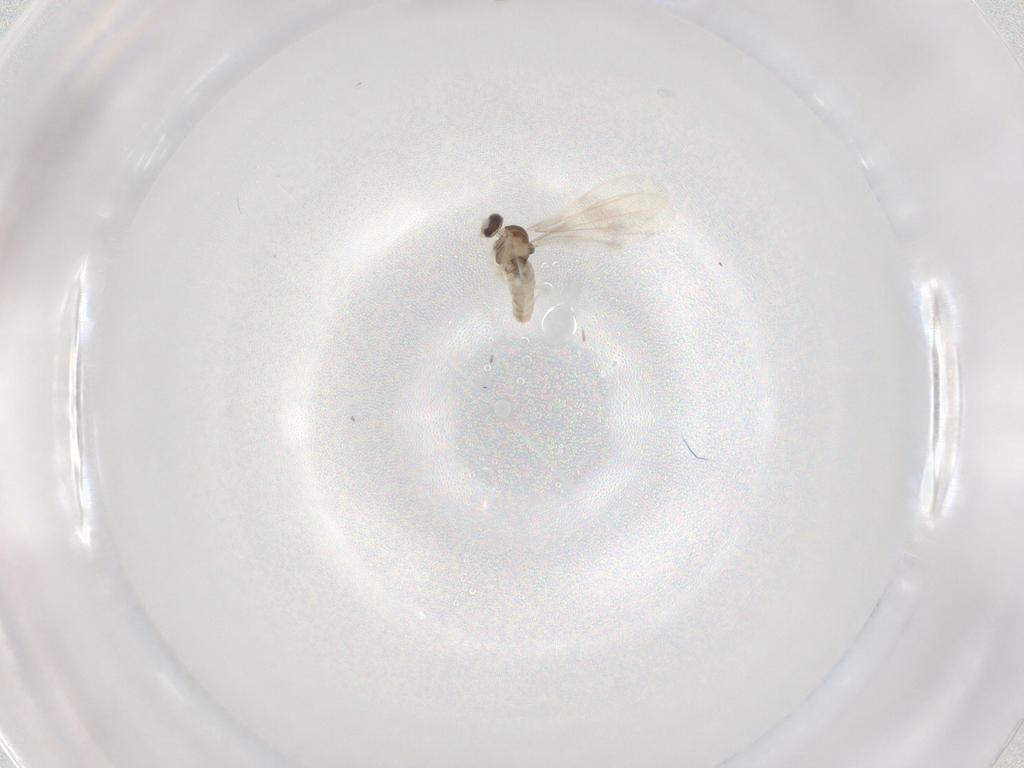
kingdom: Animalia
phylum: Arthropoda
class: Insecta
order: Diptera
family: Cecidomyiidae
